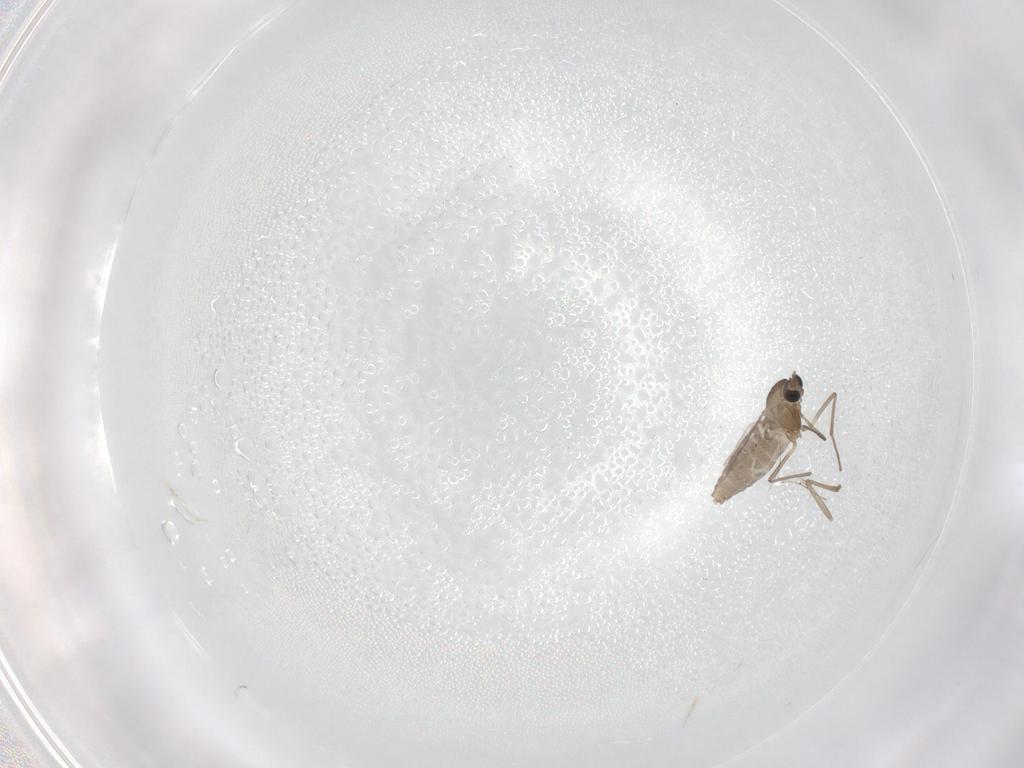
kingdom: Animalia
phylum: Arthropoda
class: Insecta
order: Diptera
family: Chironomidae
